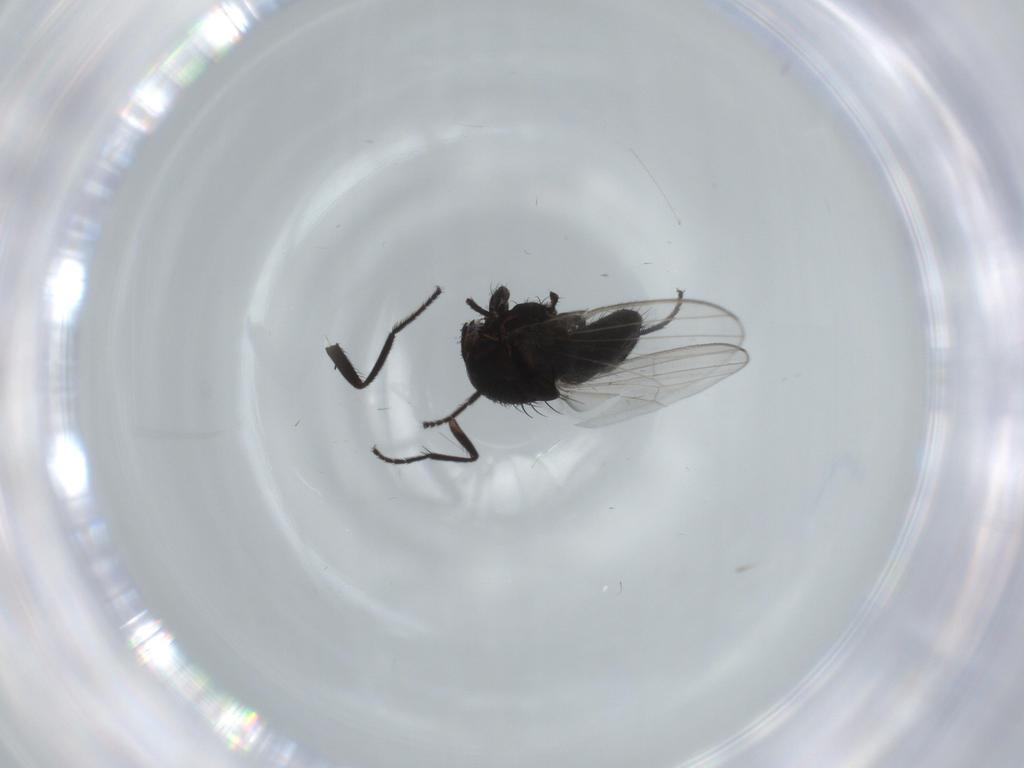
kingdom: Animalia
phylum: Arthropoda
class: Insecta
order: Diptera
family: Milichiidae
